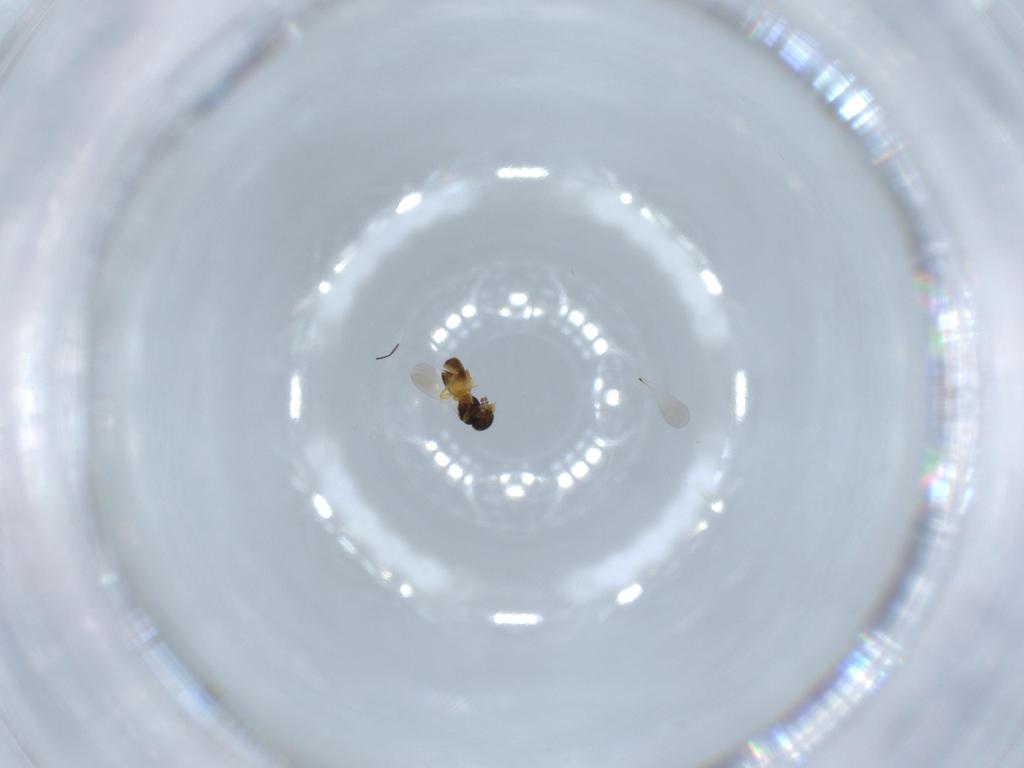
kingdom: Animalia
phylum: Arthropoda
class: Insecta
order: Hymenoptera
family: Platygastridae
